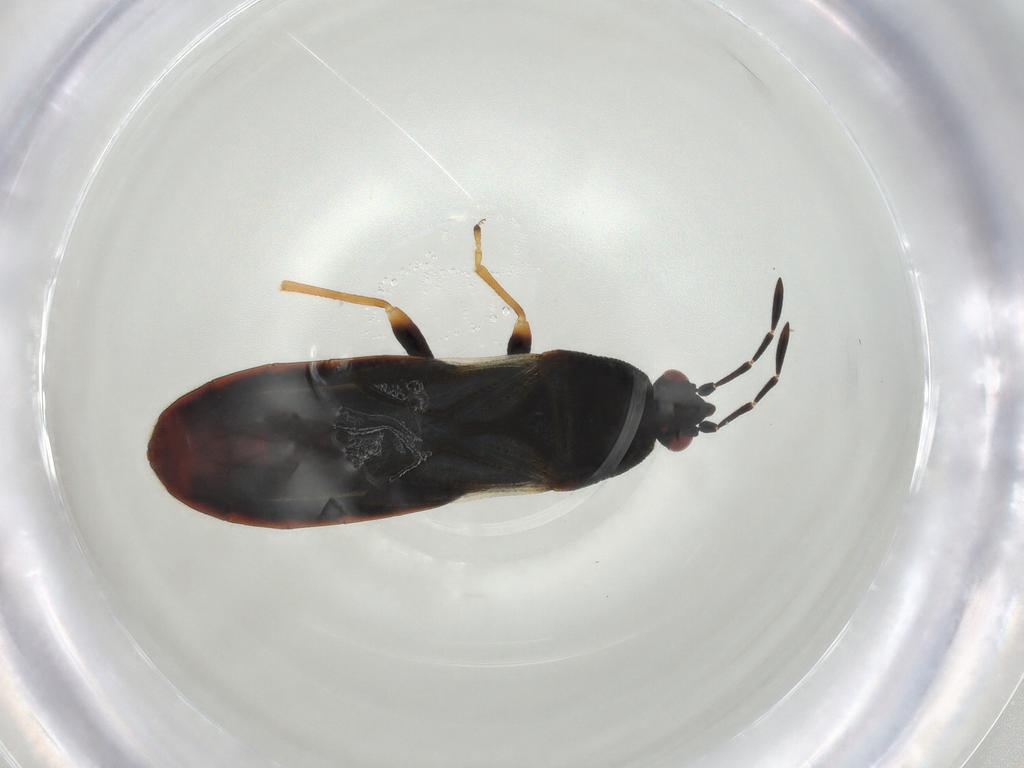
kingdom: Animalia
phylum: Arthropoda
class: Insecta
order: Hemiptera
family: Blissidae
